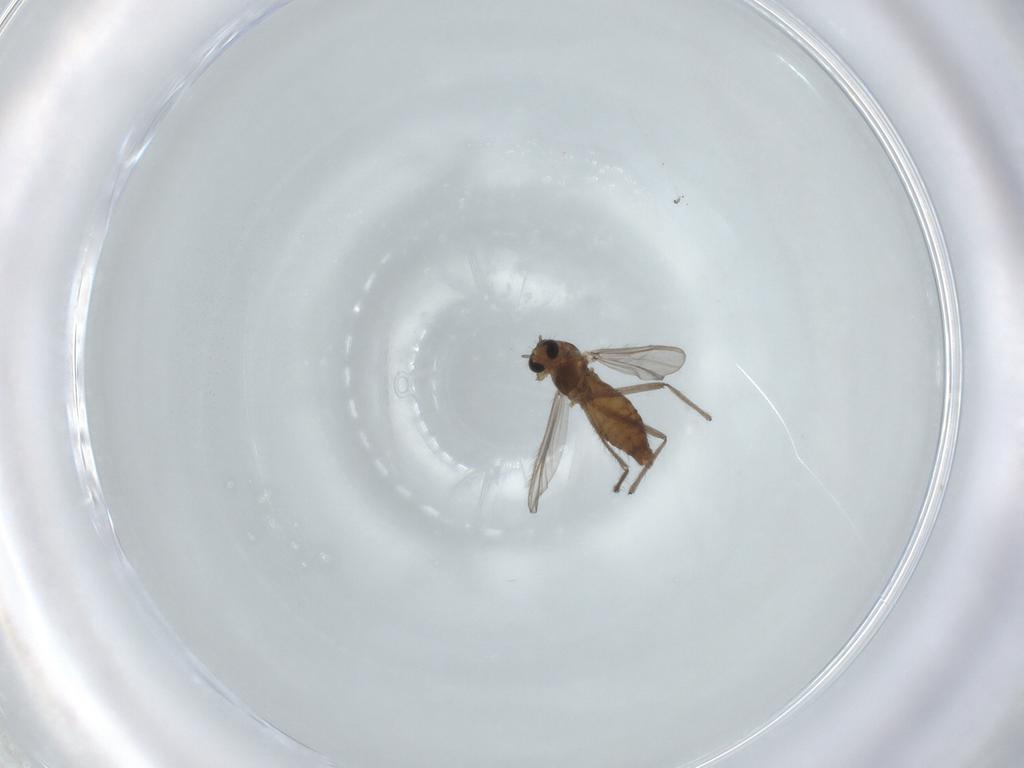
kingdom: Animalia
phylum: Arthropoda
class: Insecta
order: Diptera
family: Chironomidae
